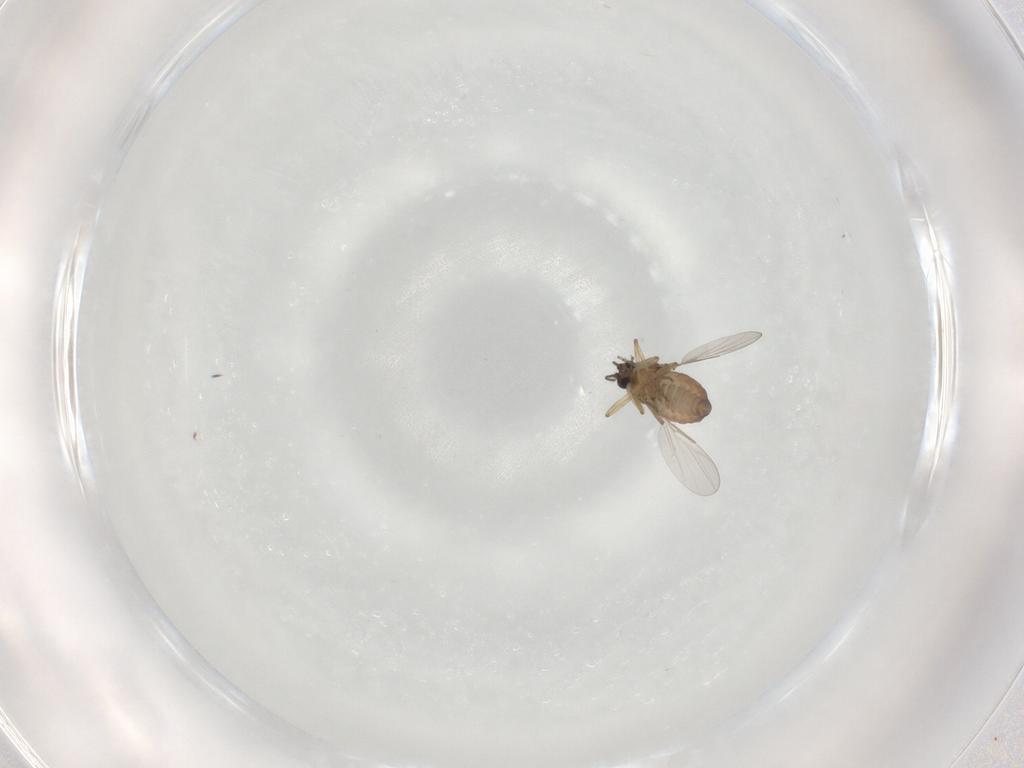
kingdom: Animalia
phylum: Arthropoda
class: Insecta
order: Diptera
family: Ceratopogonidae
